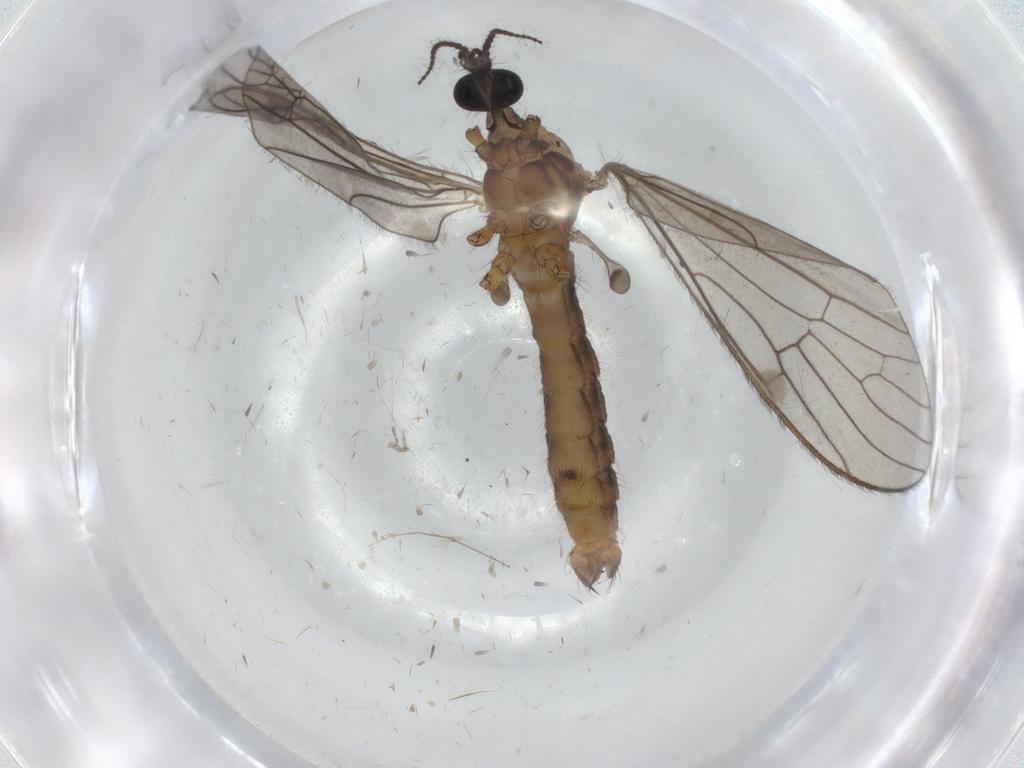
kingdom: Animalia
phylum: Arthropoda
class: Insecta
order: Diptera
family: Limoniidae
